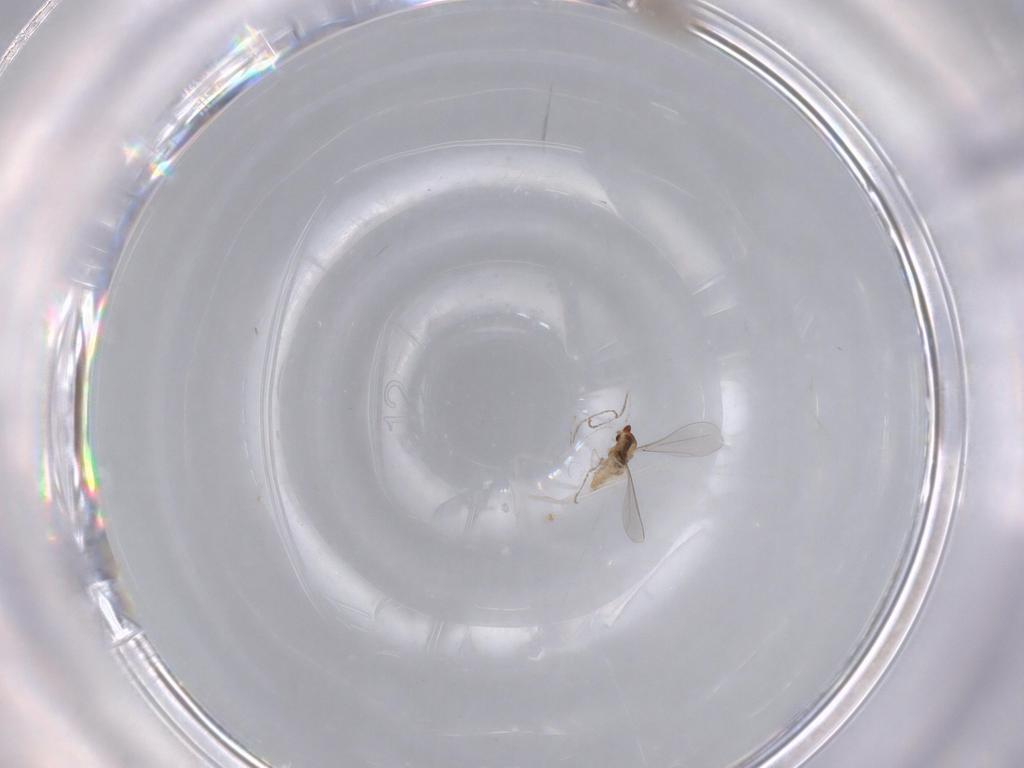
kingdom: Animalia
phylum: Arthropoda
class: Insecta
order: Diptera
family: Cecidomyiidae
